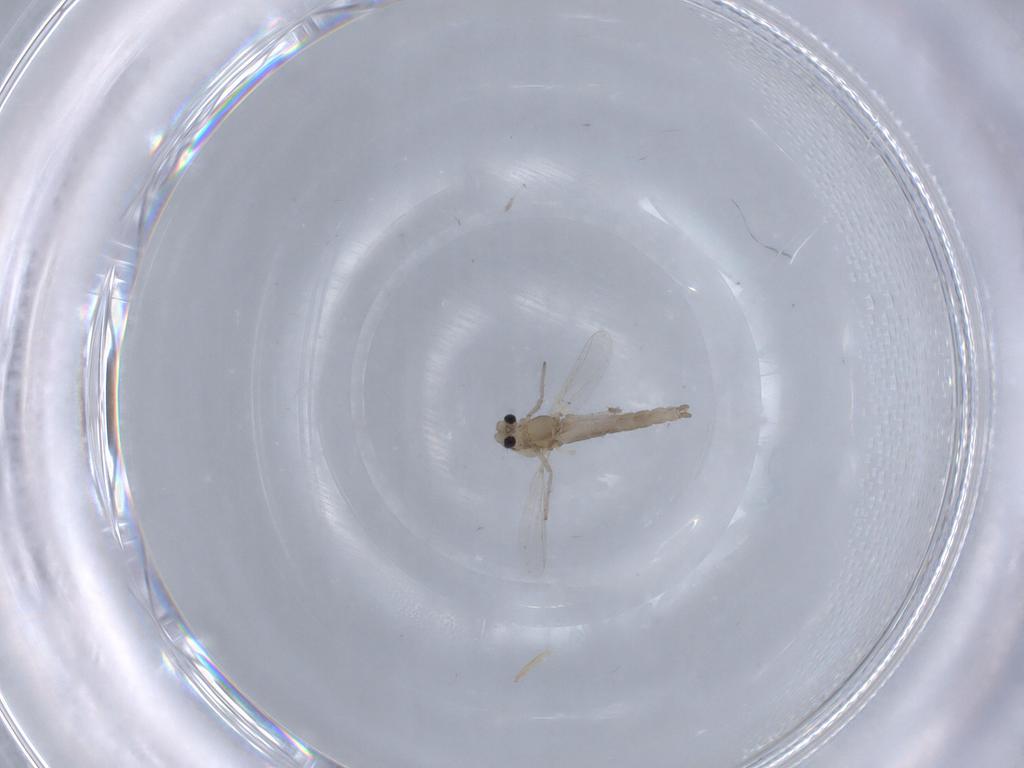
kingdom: Animalia
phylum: Arthropoda
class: Insecta
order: Diptera
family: Chironomidae
